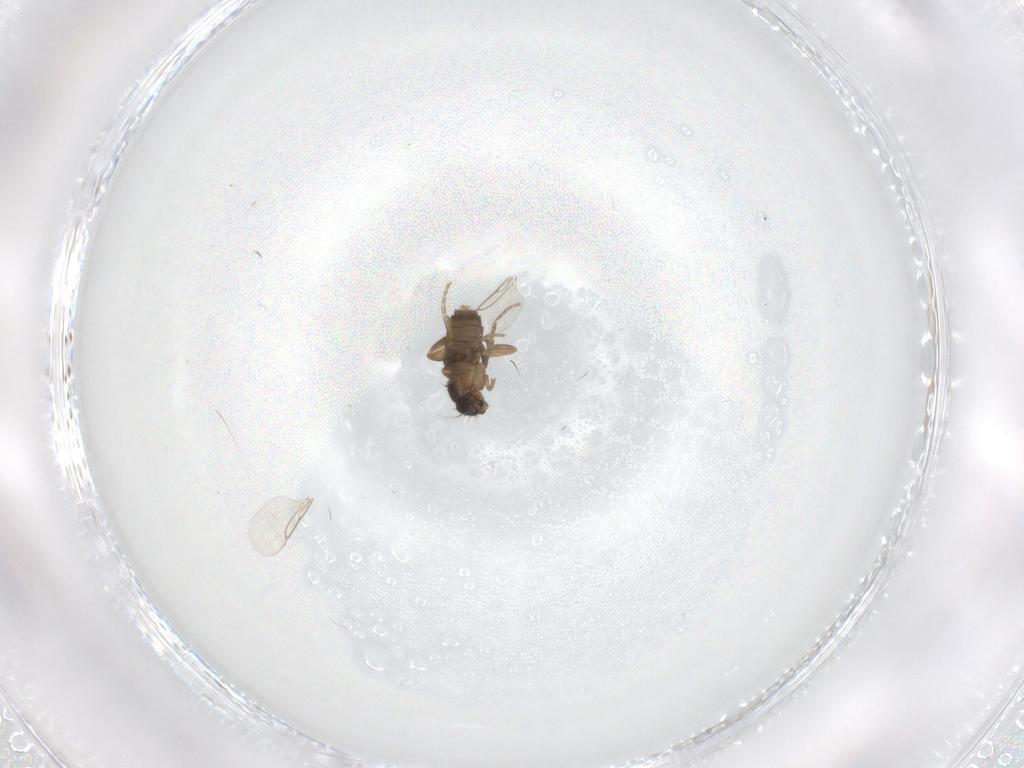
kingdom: Animalia
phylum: Arthropoda
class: Insecta
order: Diptera
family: Phoridae
